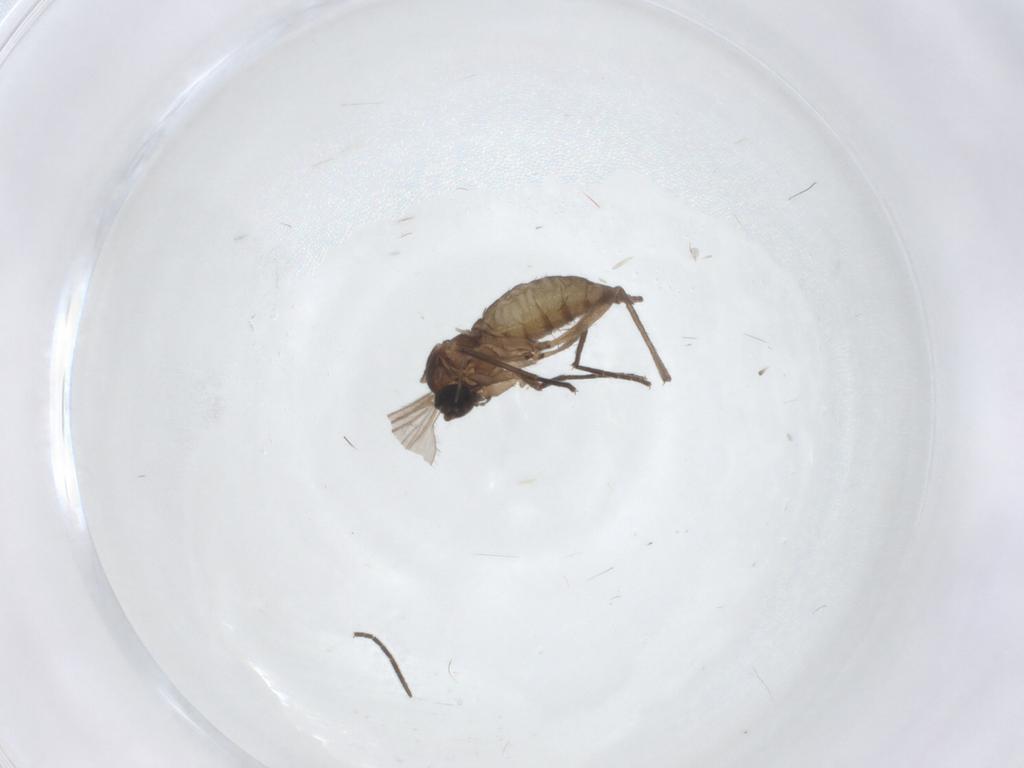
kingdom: Animalia
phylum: Arthropoda
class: Insecta
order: Diptera
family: Sciaridae
